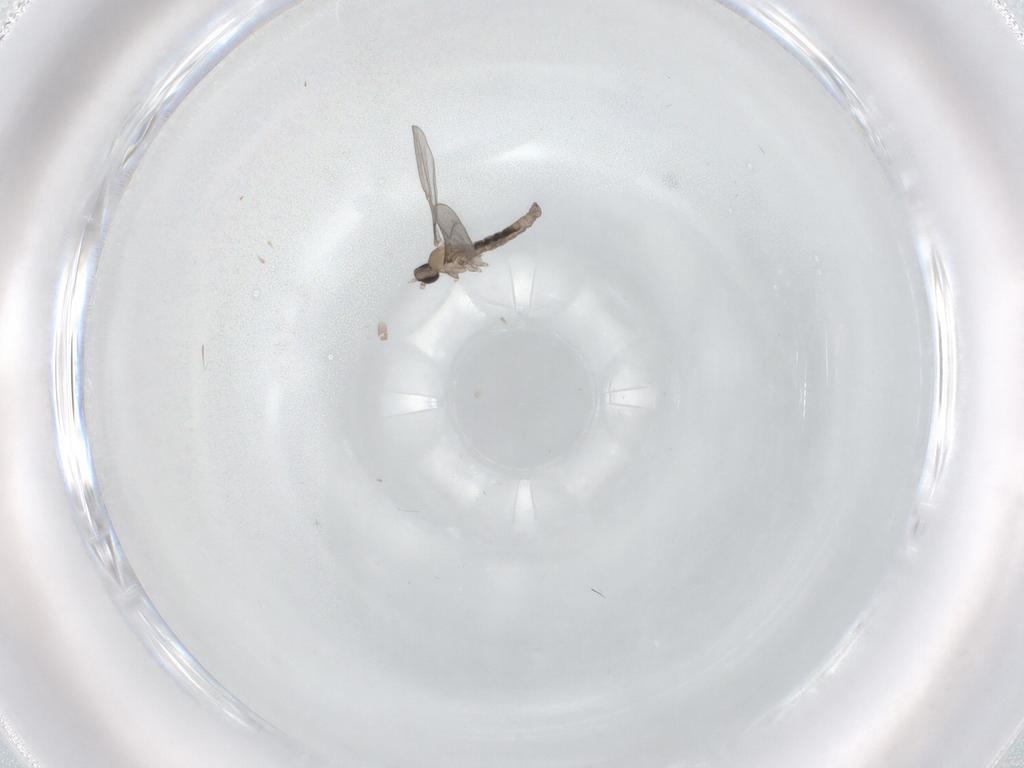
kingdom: Animalia
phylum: Arthropoda
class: Insecta
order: Diptera
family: Cecidomyiidae
